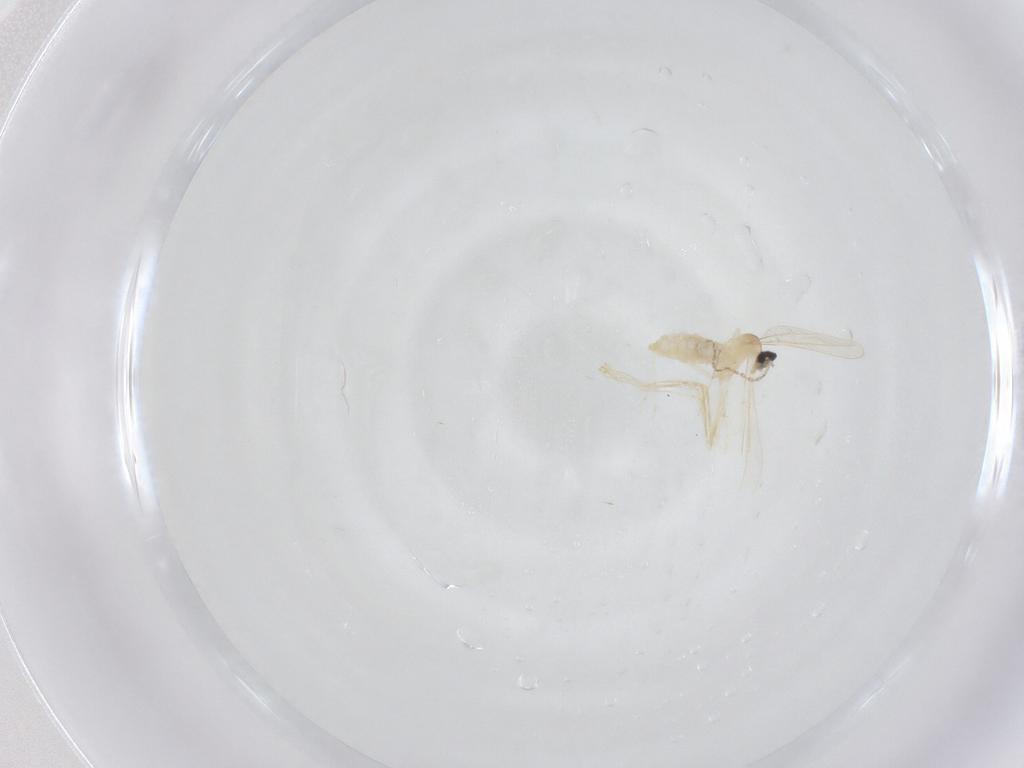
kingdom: Animalia
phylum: Arthropoda
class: Insecta
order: Diptera
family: Cecidomyiidae
